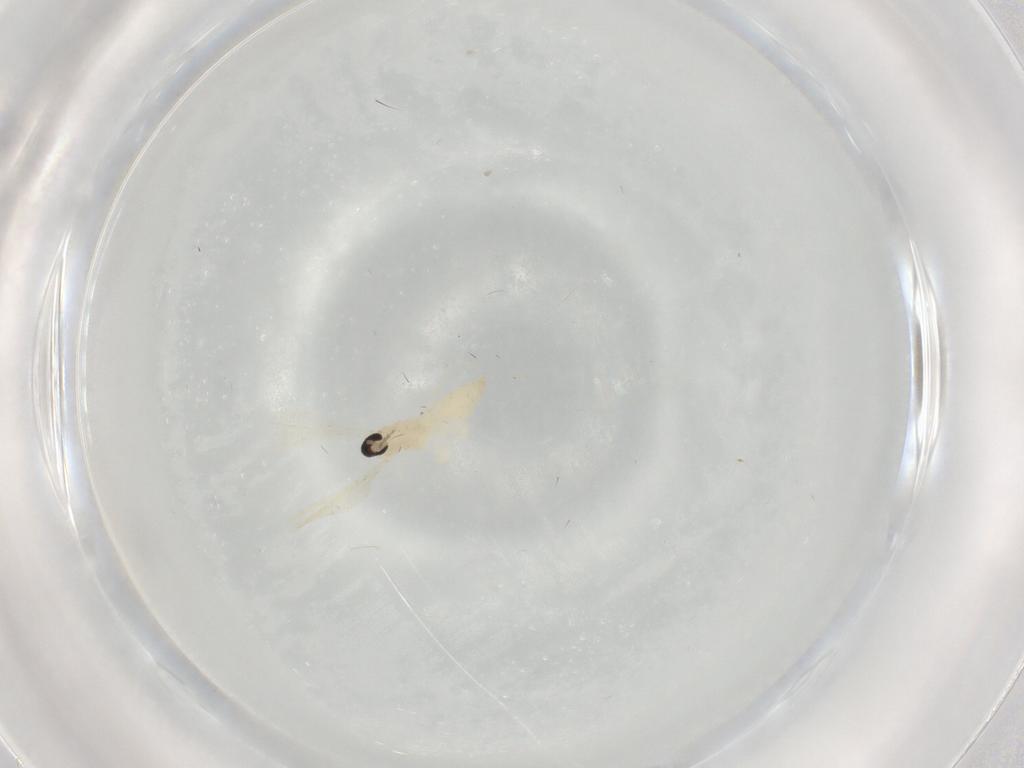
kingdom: Animalia
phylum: Arthropoda
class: Insecta
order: Diptera
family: Cecidomyiidae
